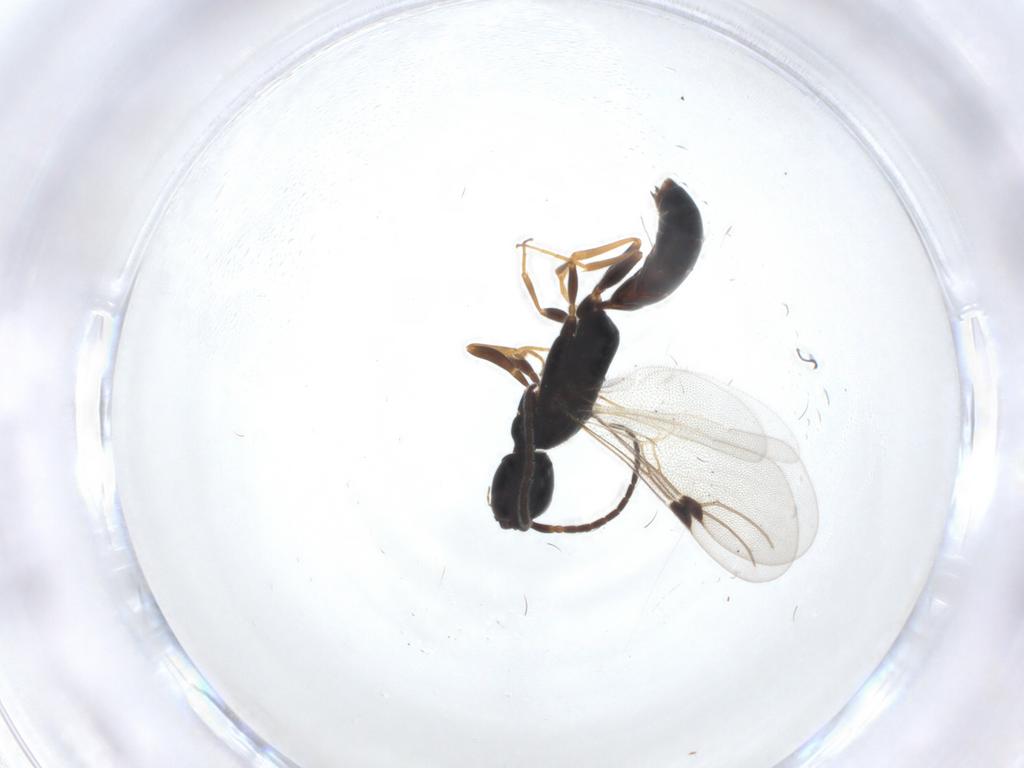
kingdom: Animalia
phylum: Arthropoda
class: Insecta
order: Hymenoptera
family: Bethylidae
